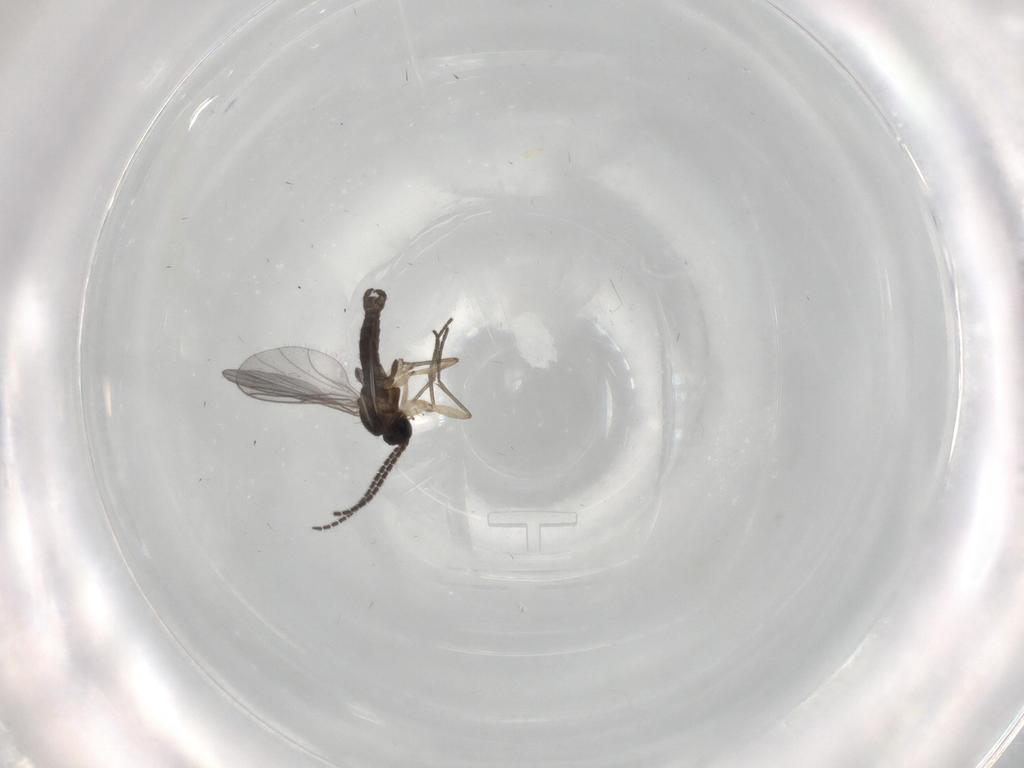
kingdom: Animalia
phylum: Arthropoda
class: Insecta
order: Diptera
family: Sciaridae
